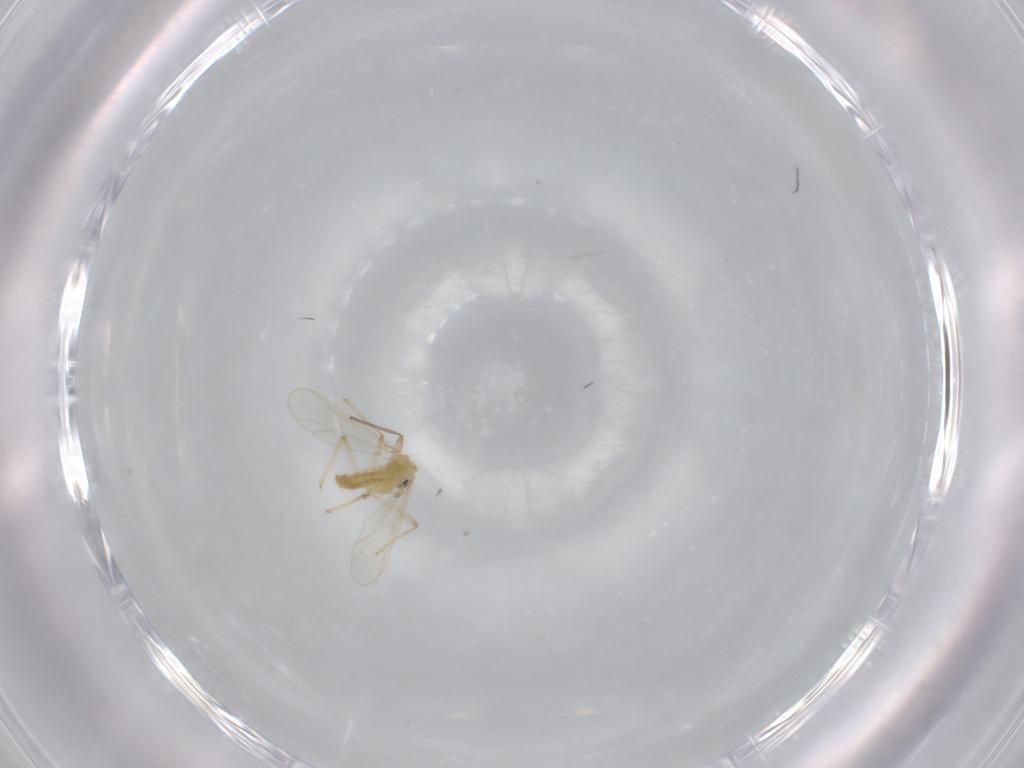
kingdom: Animalia
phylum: Arthropoda
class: Insecta
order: Diptera
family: Chironomidae
